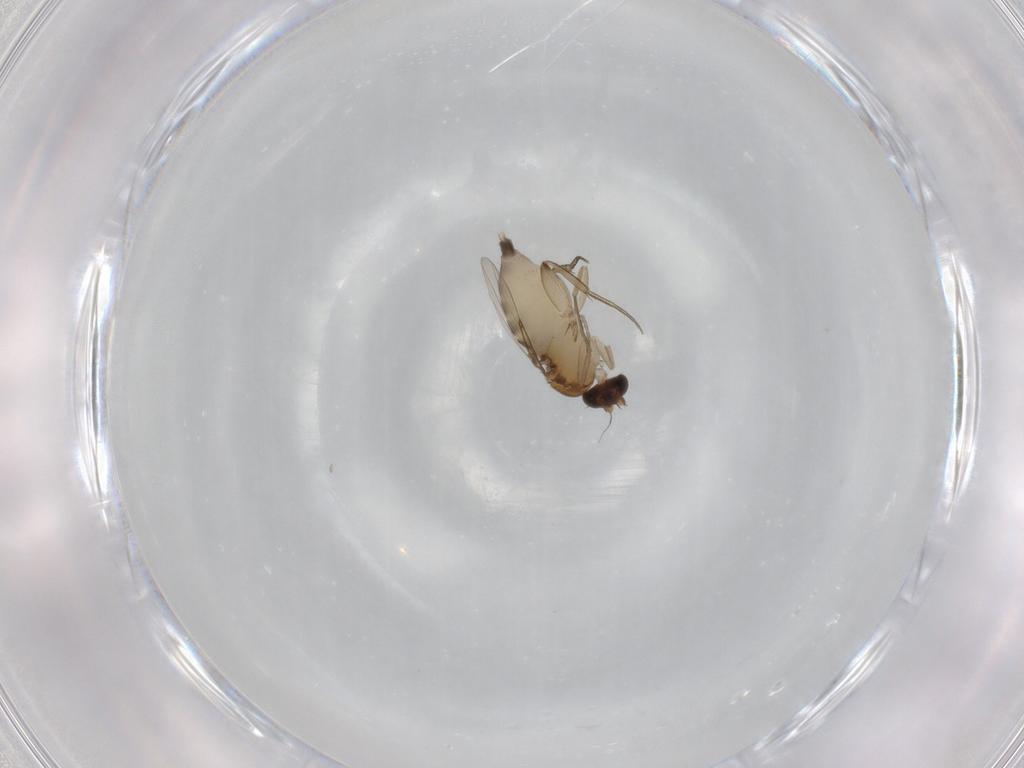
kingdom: Animalia
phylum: Arthropoda
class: Insecta
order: Diptera
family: Phoridae
